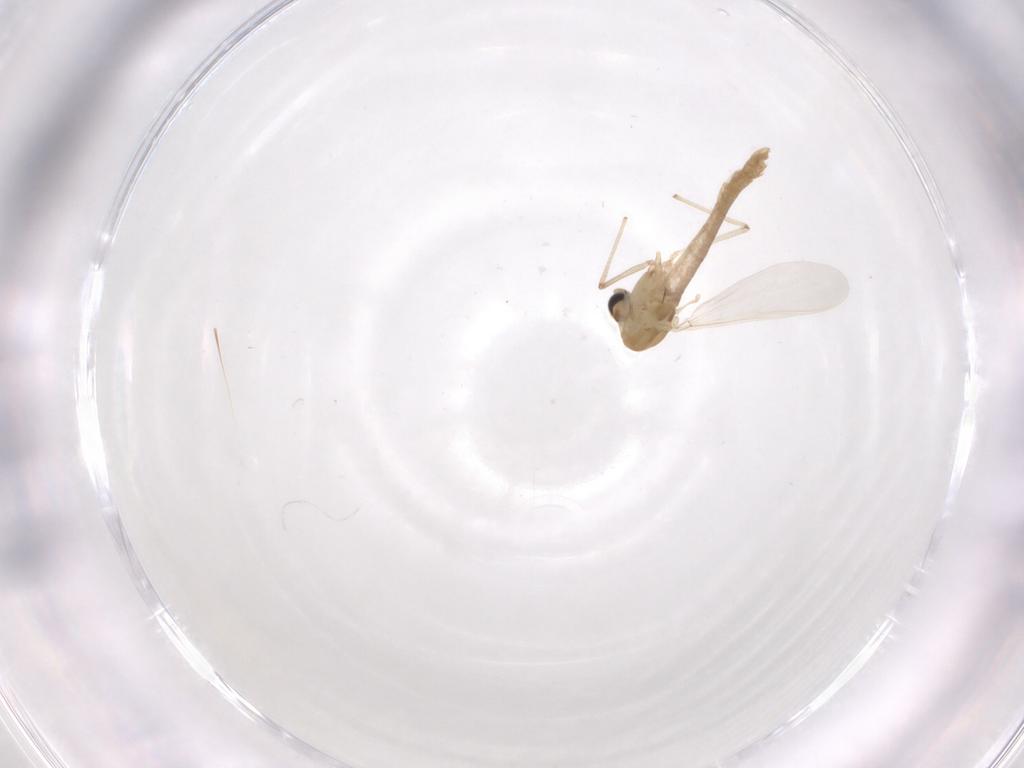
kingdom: Animalia
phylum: Arthropoda
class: Insecta
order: Diptera
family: Chironomidae
